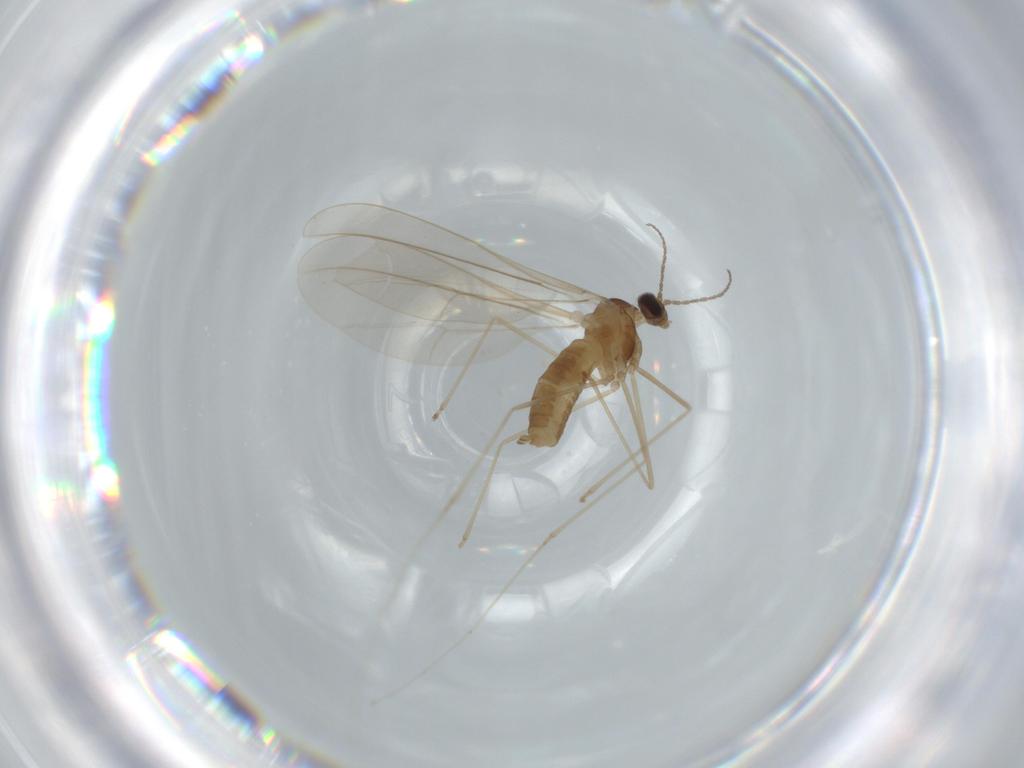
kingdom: Animalia
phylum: Arthropoda
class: Insecta
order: Diptera
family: Cecidomyiidae
